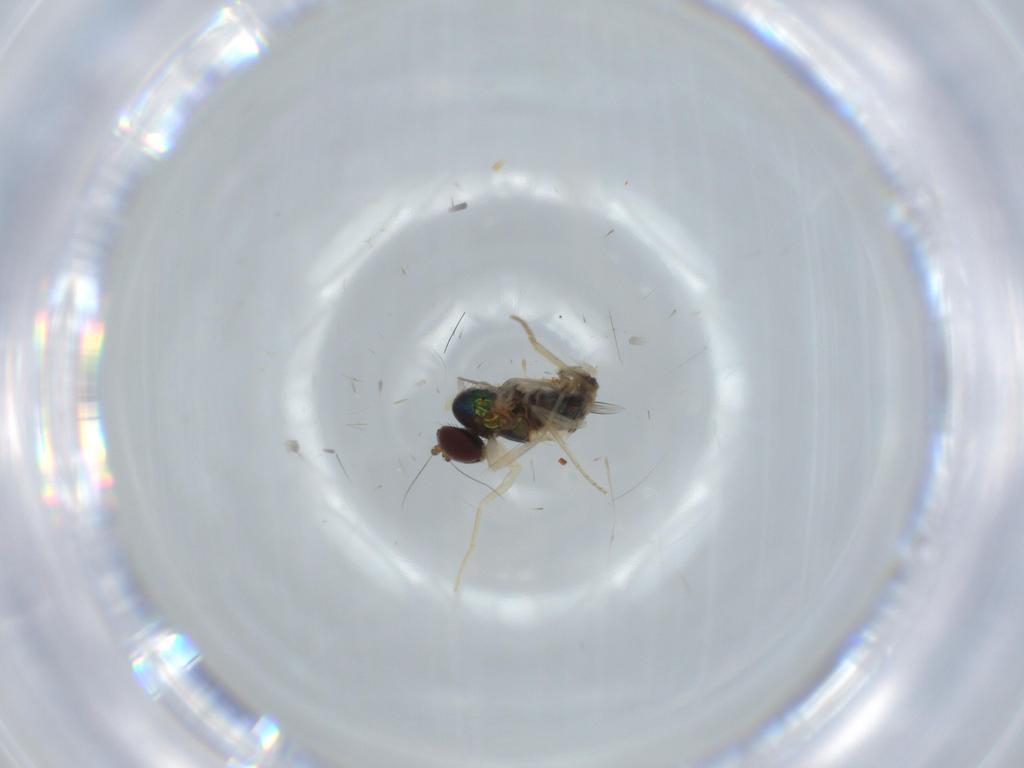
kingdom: Animalia
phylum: Arthropoda
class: Insecta
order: Diptera
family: Dolichopodidae
